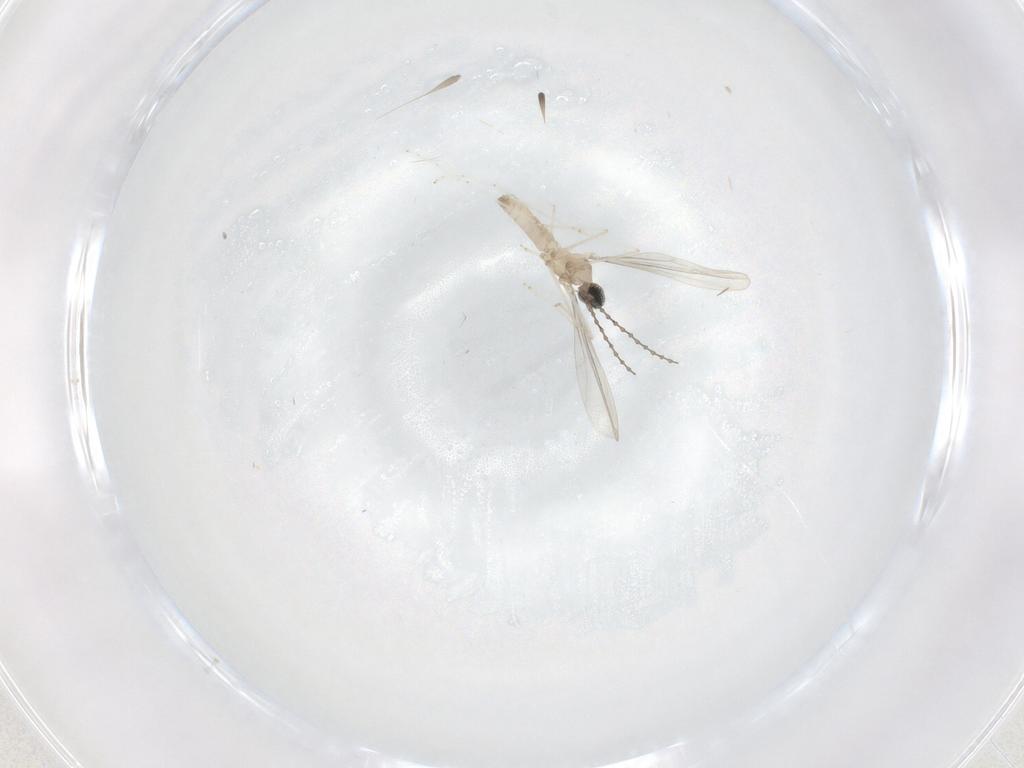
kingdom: Animalia
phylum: Arthropoda
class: Insecta
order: Diptera
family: Cecidomyiidae
